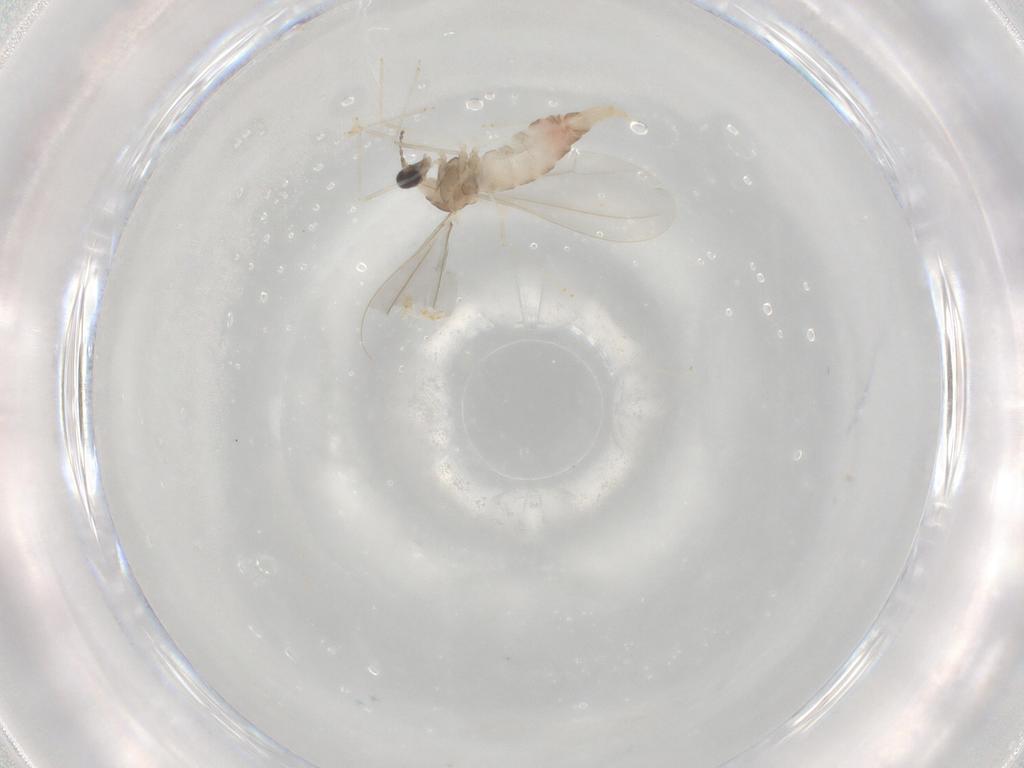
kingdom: Animalia
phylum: Arthropoda
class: Insecta
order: Diptera
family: Cecidomyiidae
